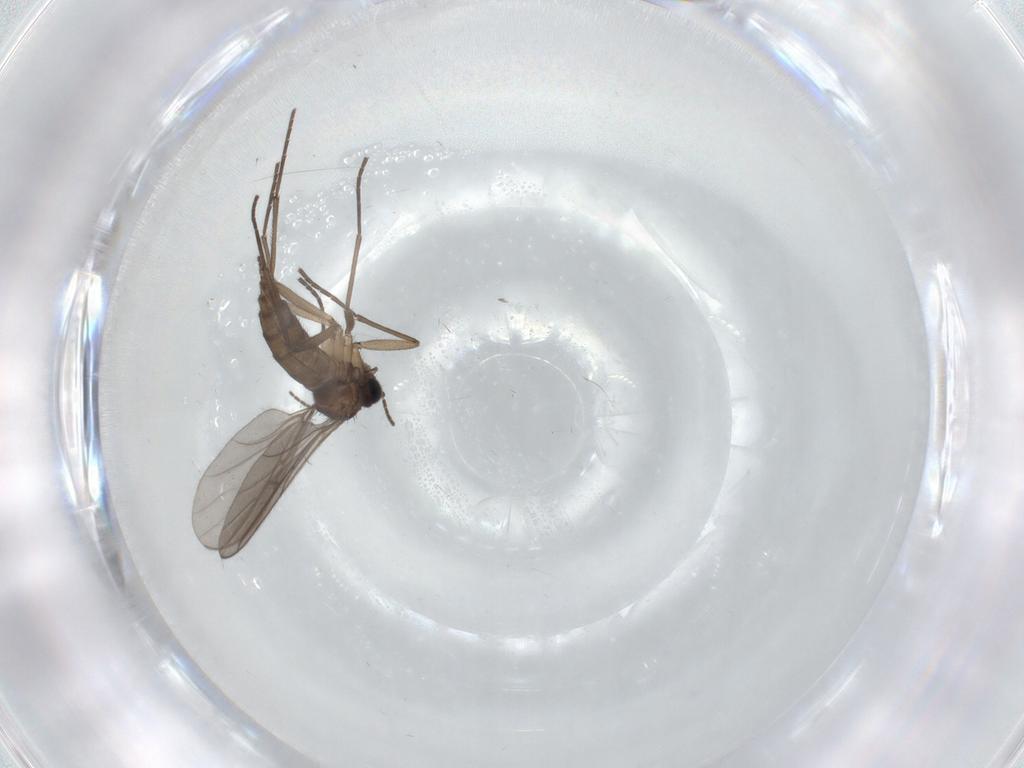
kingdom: Animalia
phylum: Arthropoda
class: Insecta
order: Diptera
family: Sciaridae
